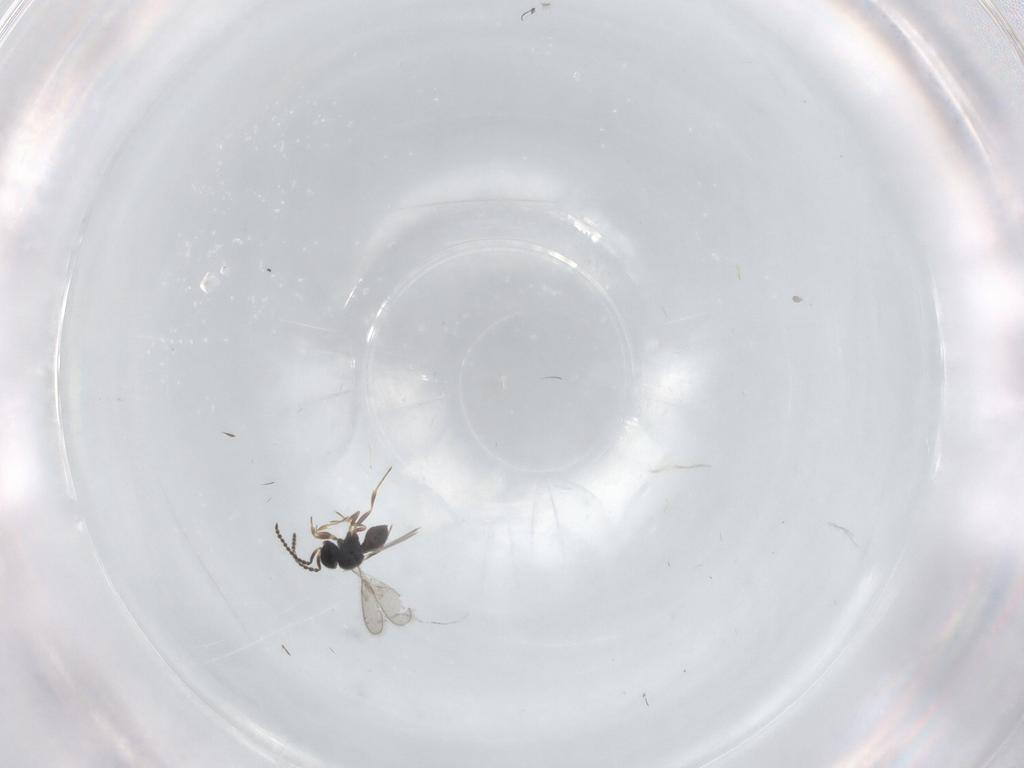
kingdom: Animalia
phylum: Arthropoda
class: Insecta
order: Hymenoptera
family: Scelionidae
